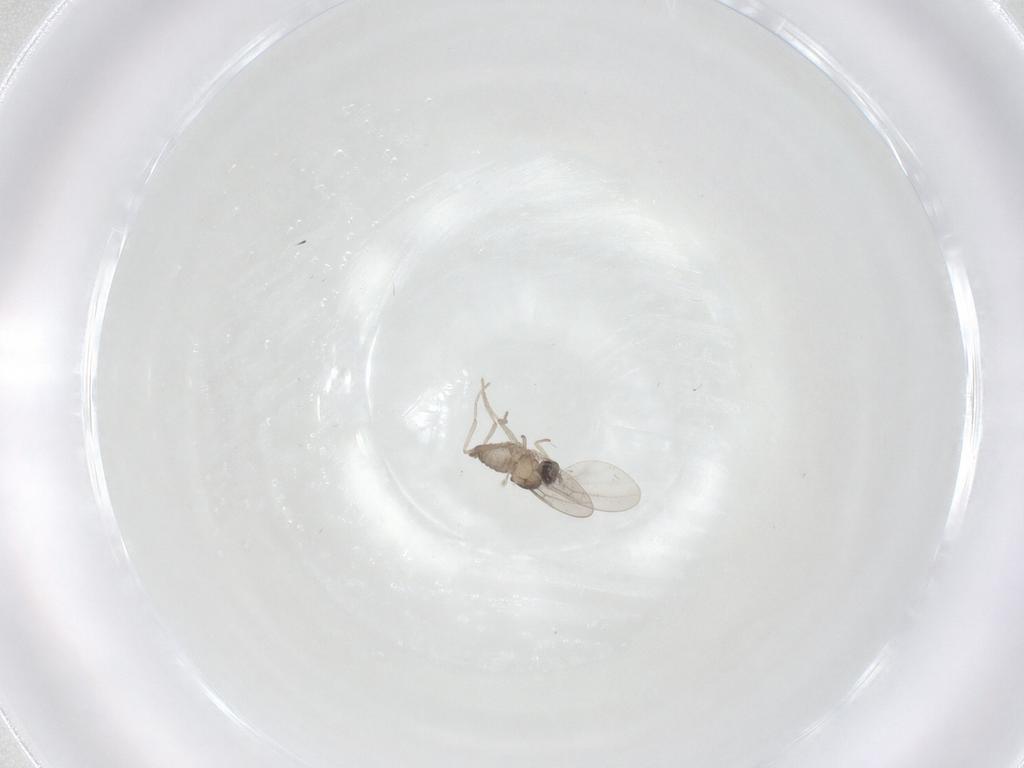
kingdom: Animalia
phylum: Arthropoda
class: Insecta
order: Diptera
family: Cecidomyiidae
